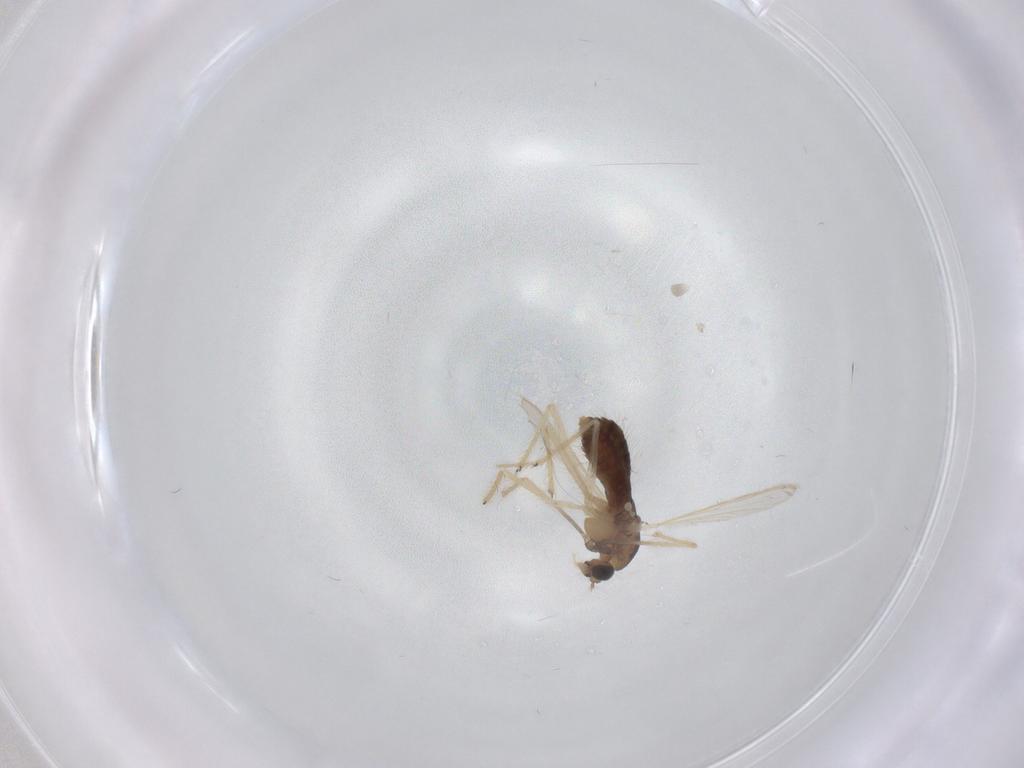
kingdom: Animalia
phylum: Arthropoda
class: Insecta
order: Diptera
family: Chironomidae
